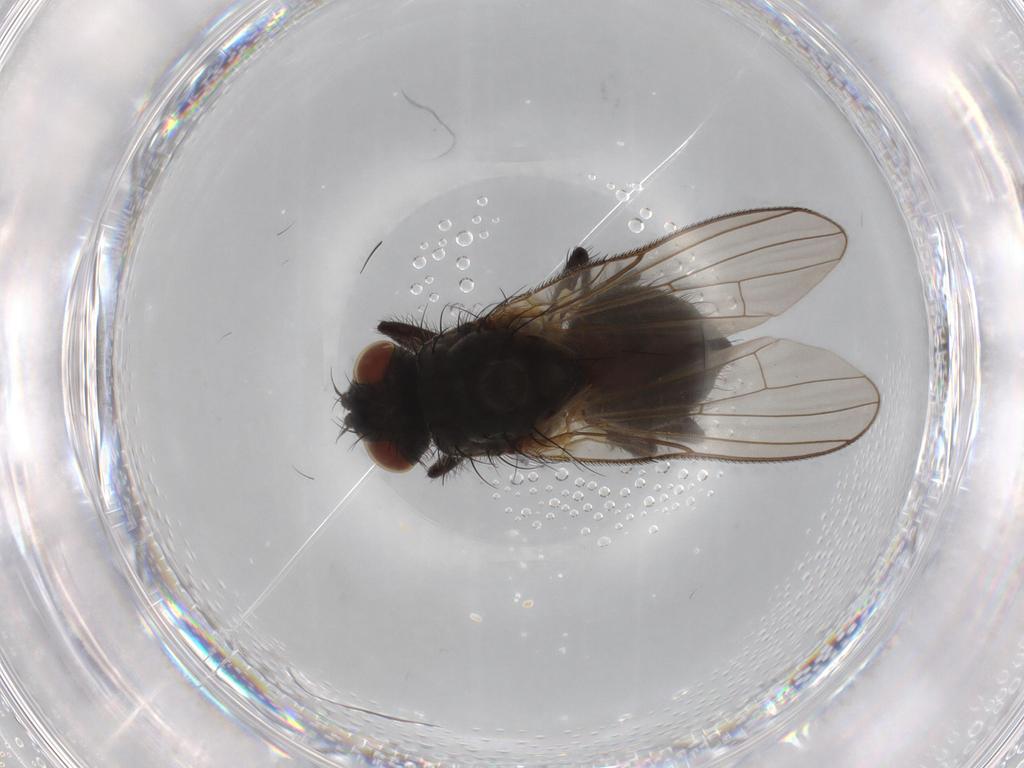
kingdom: Animalia
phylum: Arthropoda
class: Insecta
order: Diptera
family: Anthomyiidae
